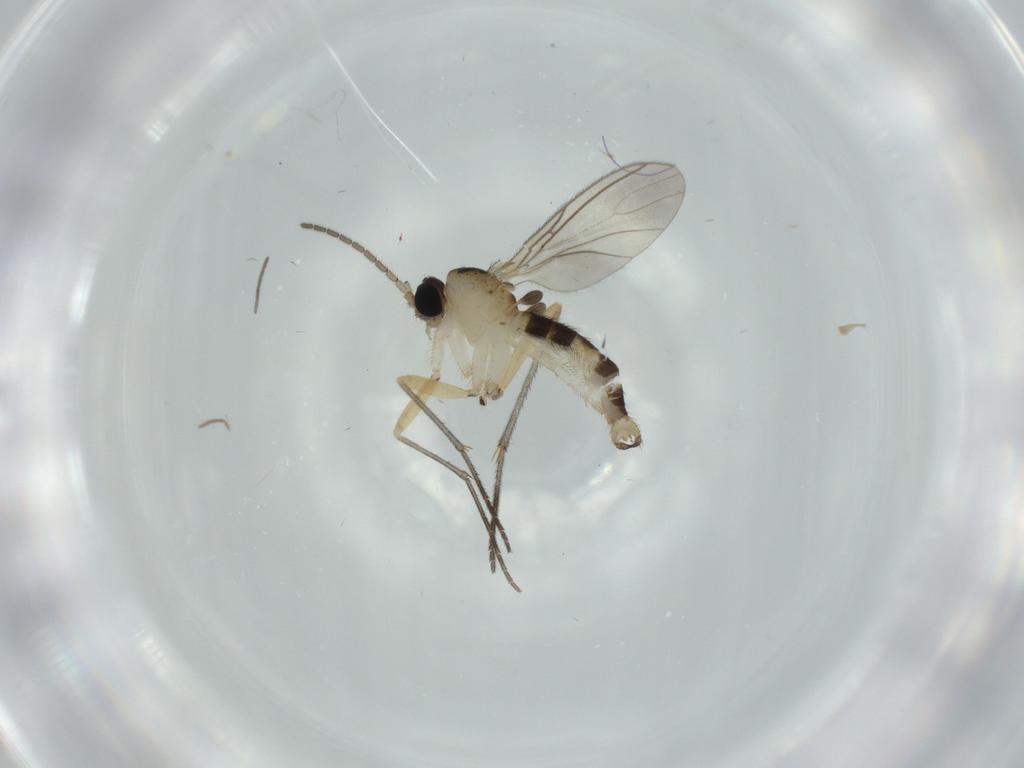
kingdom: Animalia
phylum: Arthropoda
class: Insecta
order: Diptera
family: Sciaridae
